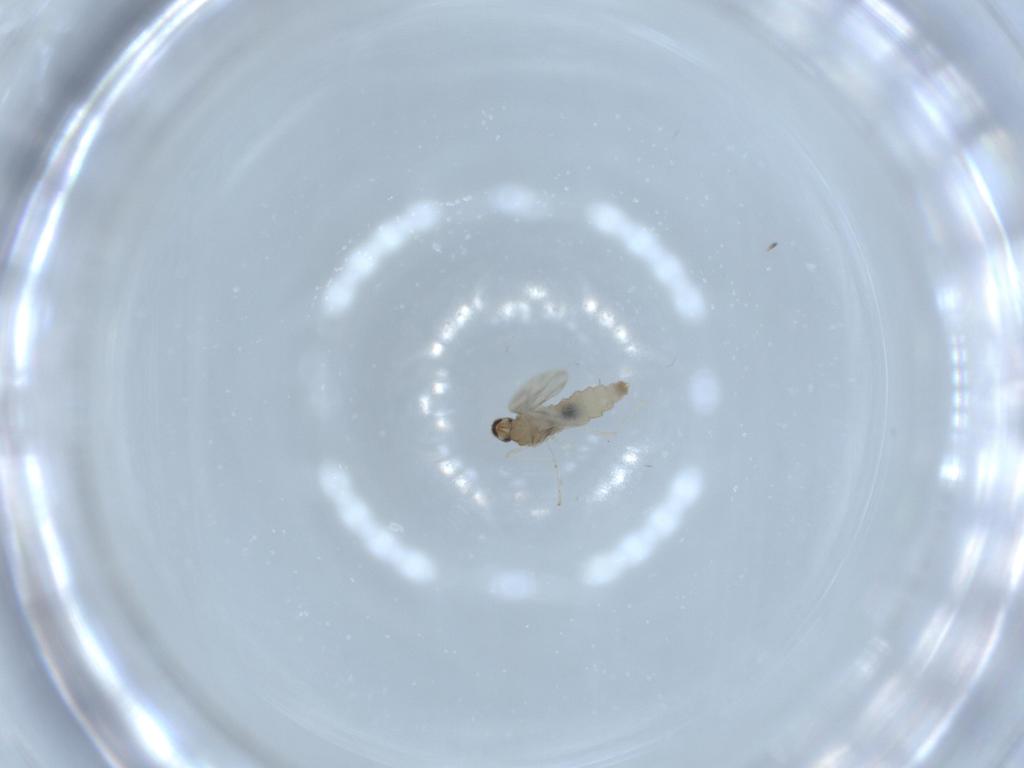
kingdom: Animalia
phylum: Arthropoda
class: Insecta
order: Diptera
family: Cecidomyiidae
